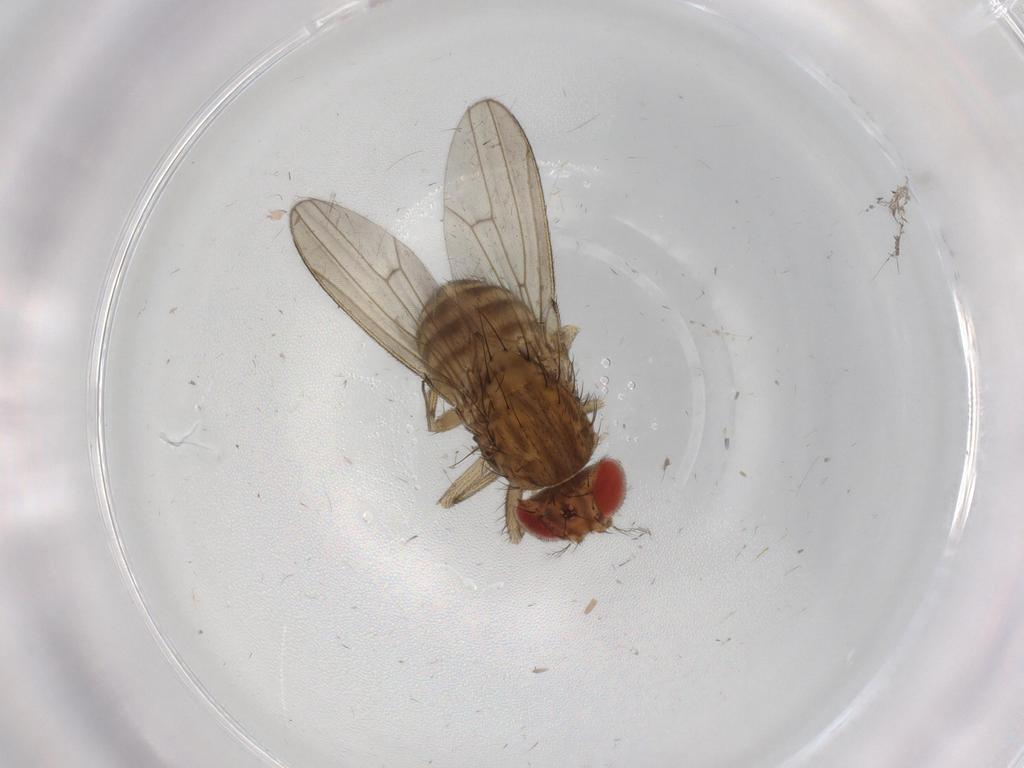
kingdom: Animalia
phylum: Arthropoda
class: Insecta
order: Diptera
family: Drosophilidae
